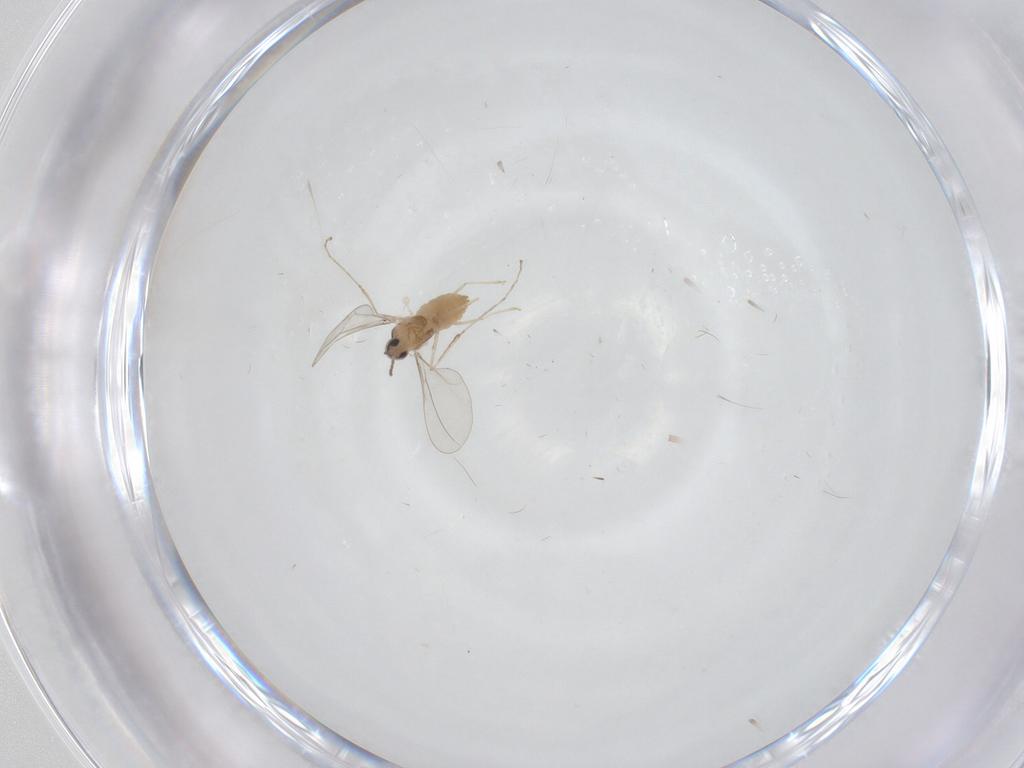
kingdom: Animalia
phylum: Arthropoda
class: Insecta
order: Diptera
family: Cecidomyiidae
